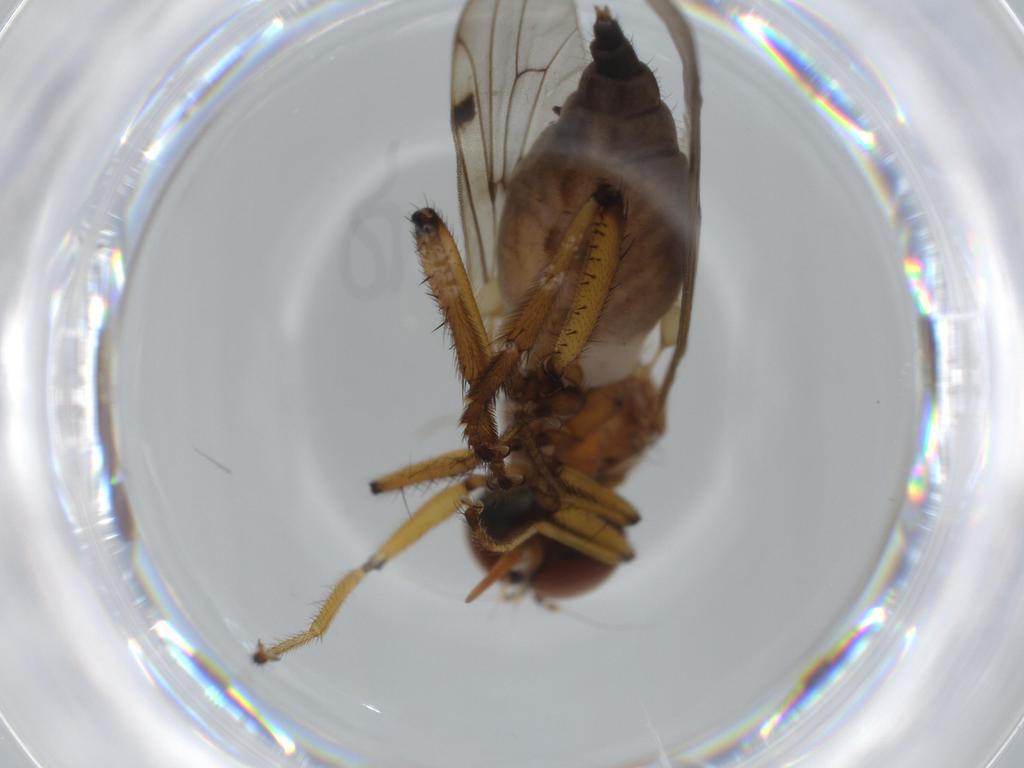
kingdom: Animalia
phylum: Arthropoda
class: Insecta
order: Diptera
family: Hybotidae
